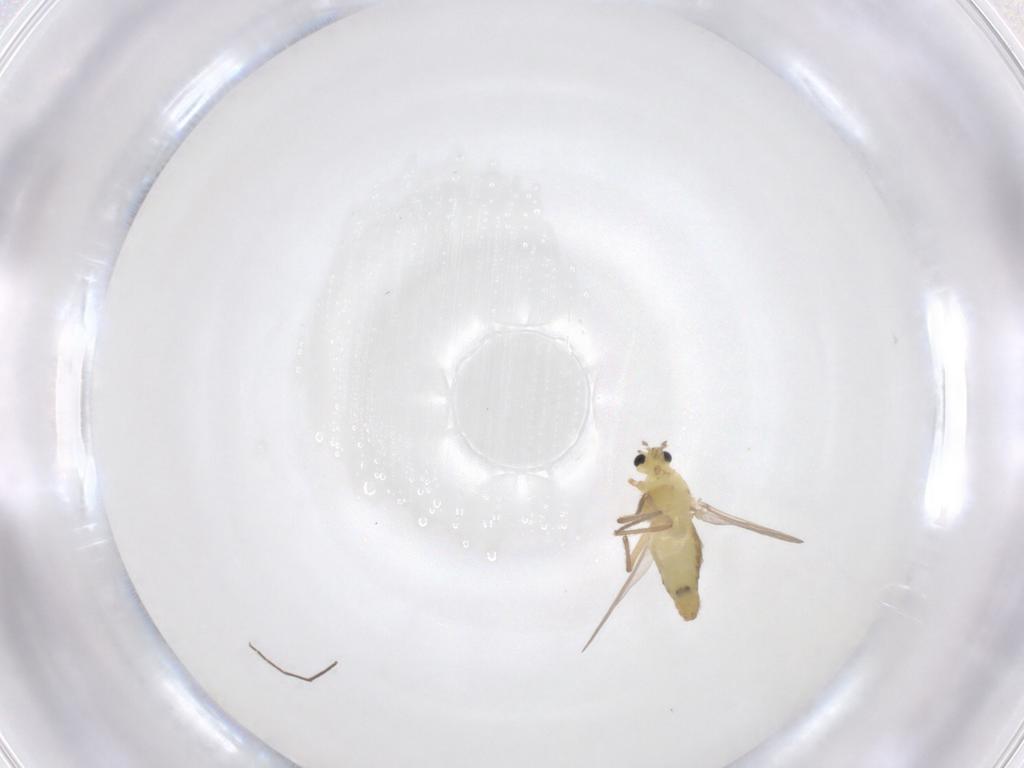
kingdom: Animalia
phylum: Arthropoda
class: Insecta
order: Diptera
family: Chironomidae
